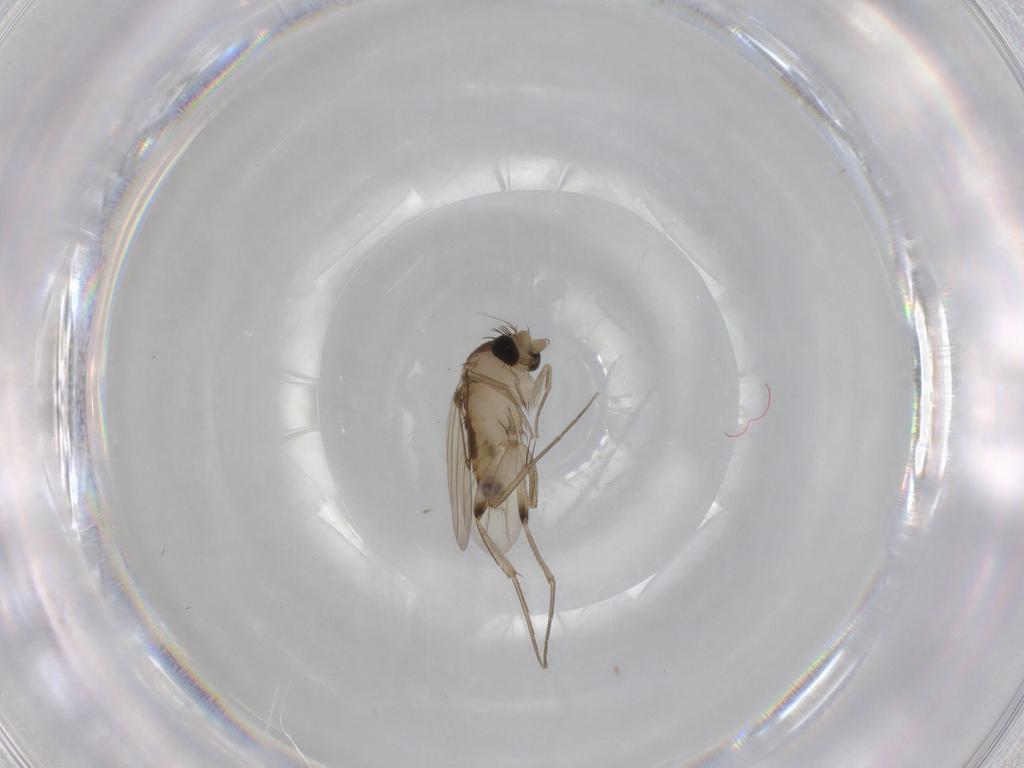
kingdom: Animalia
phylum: Arthropoda
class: Insecta
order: Diptera
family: Phoridae
